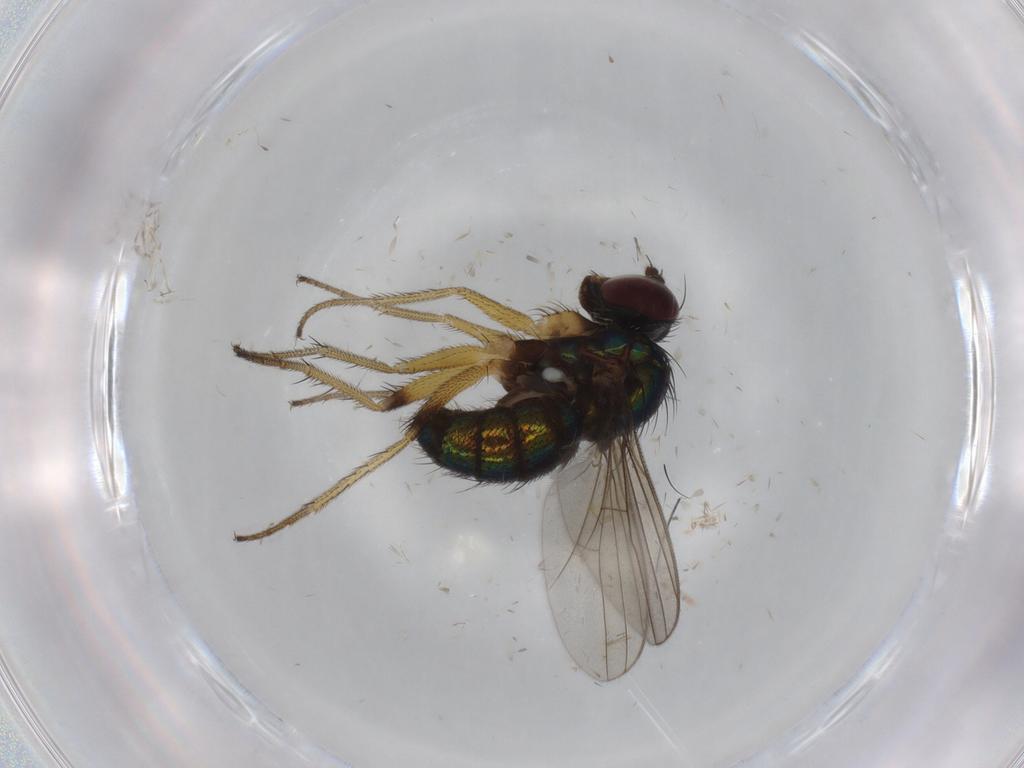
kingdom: Animalia
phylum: Arthropoda
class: Insecta
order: Diptera
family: Dolichopodidae
